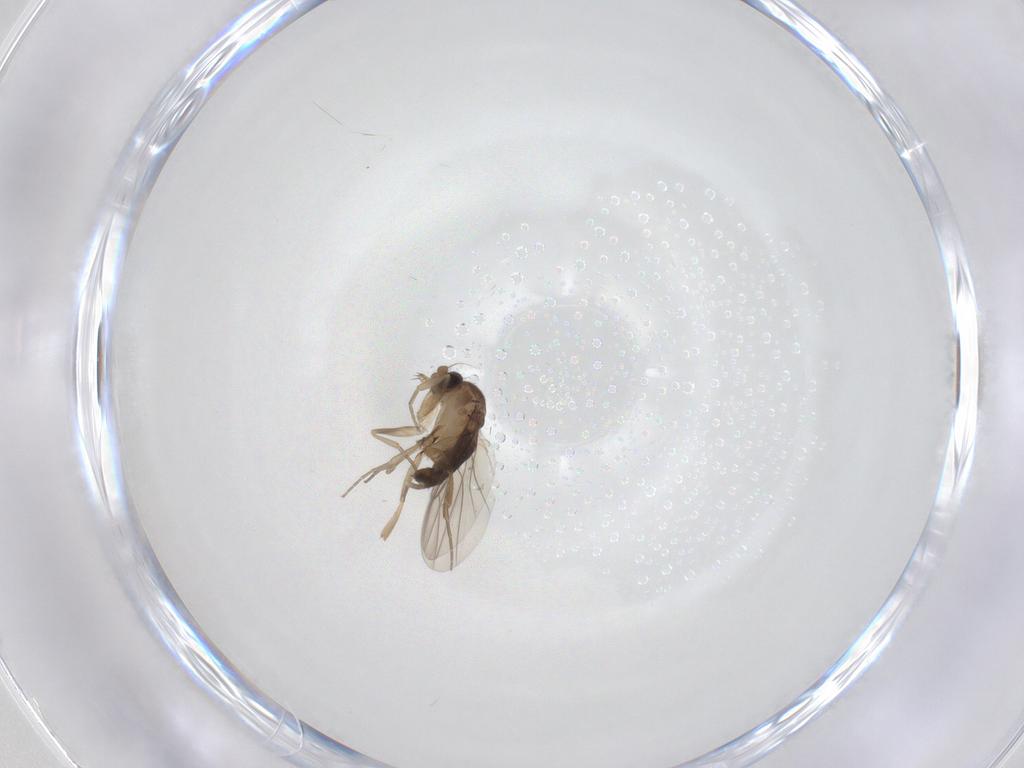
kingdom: Animalia
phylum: Arthropoda
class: Insecta
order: Diptera
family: Phoridae
